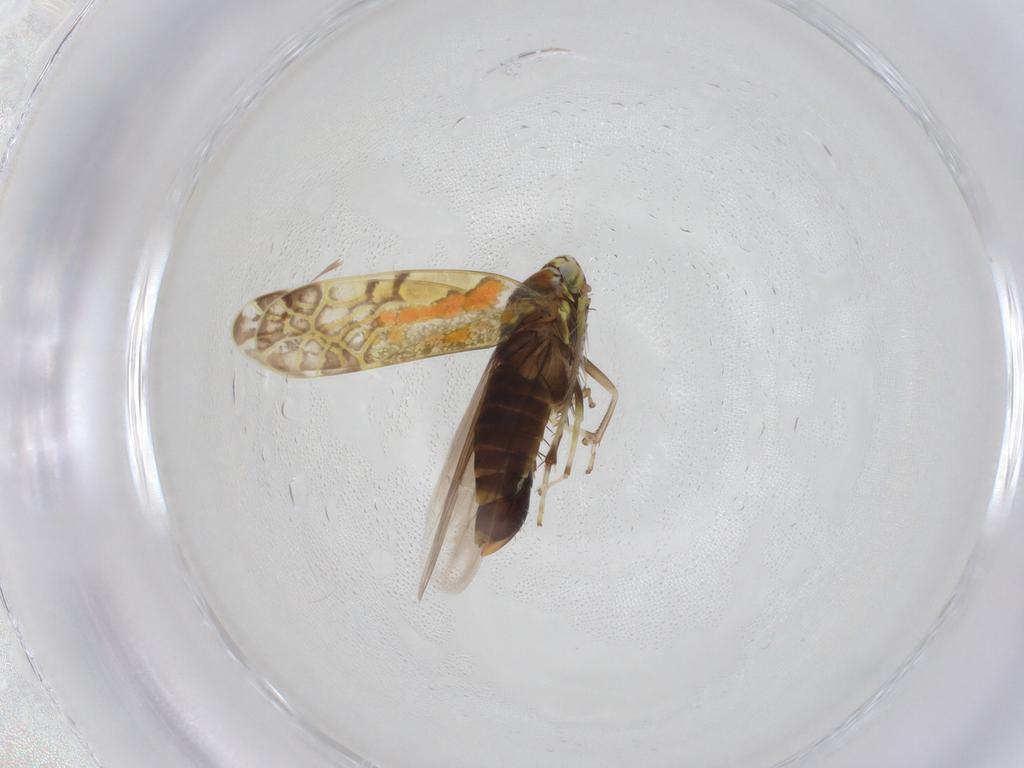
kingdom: Animalia
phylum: Arthropoda
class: Insecta
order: Hemiptera
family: Cicadellidae
